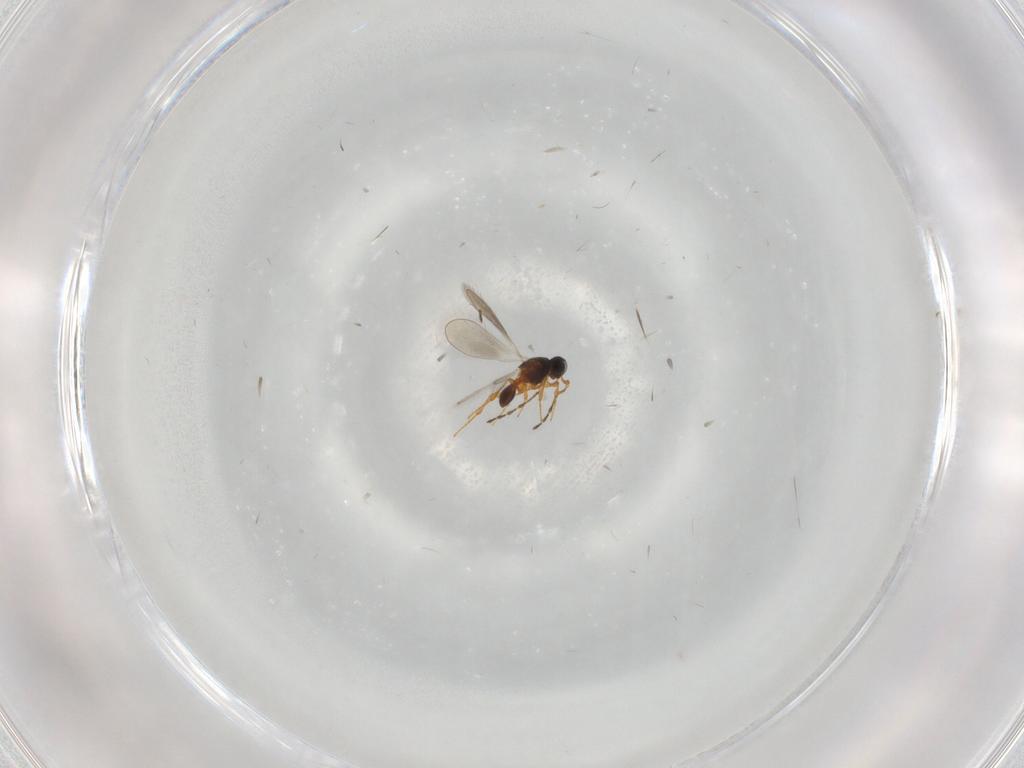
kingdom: Animalia
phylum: Arthropoda
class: Insecta
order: Hymenoptera
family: Platygastridae
